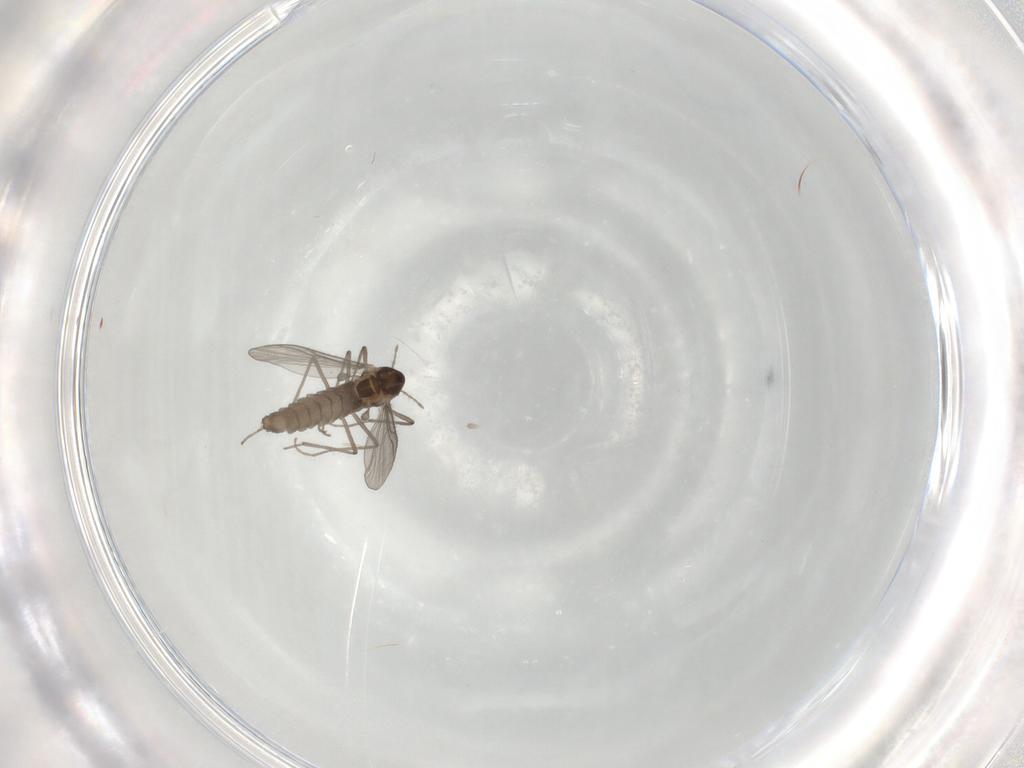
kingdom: Animalia
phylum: Arthropoda
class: Insecta
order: Diptera
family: Chironomidae
